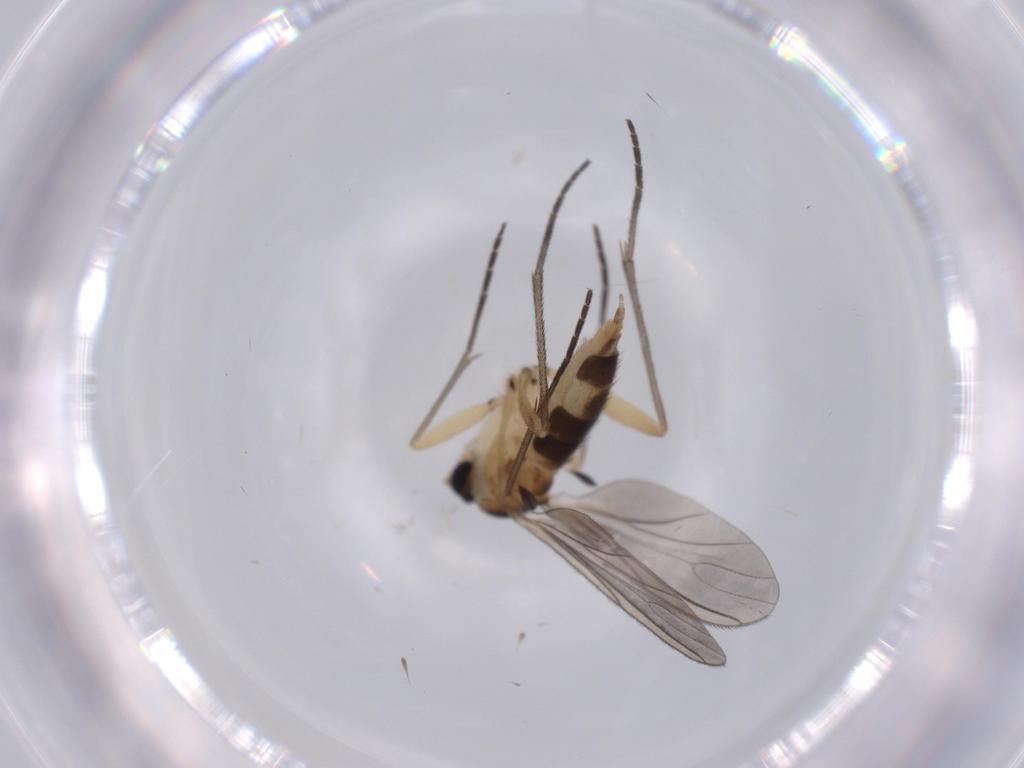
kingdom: Animalia
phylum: Arthropoda
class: Insecta
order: Diptera
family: Sciaridae
